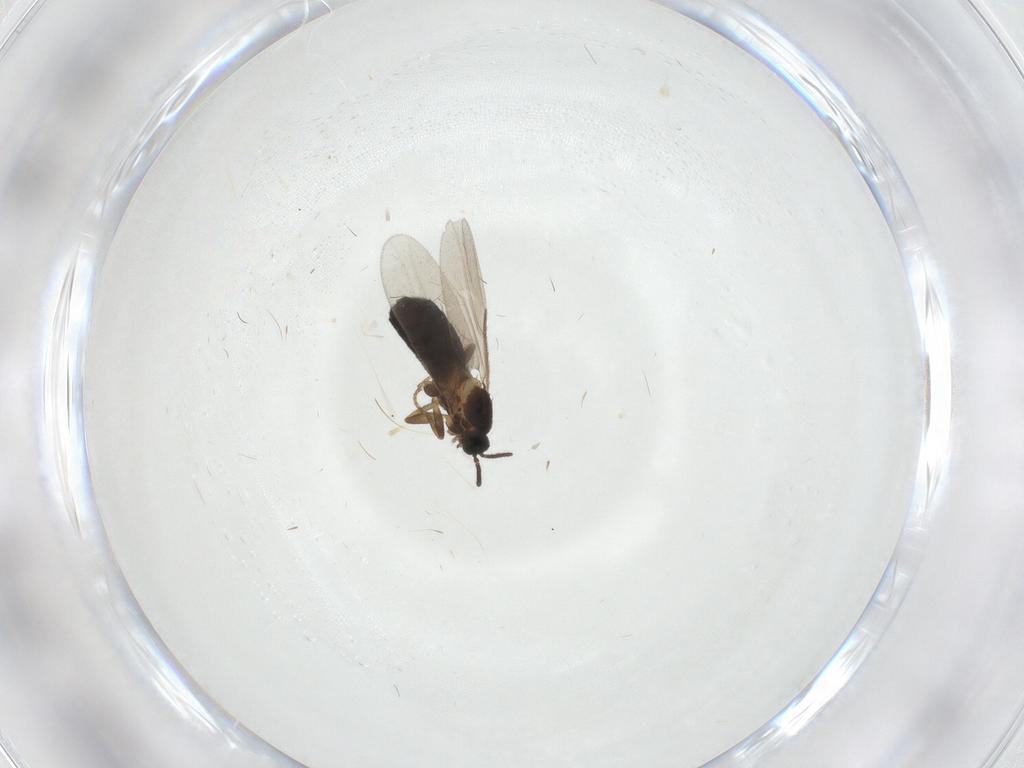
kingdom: Animalia
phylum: Arthropoda
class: Insecta
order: Diptera
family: Scatopsidae
